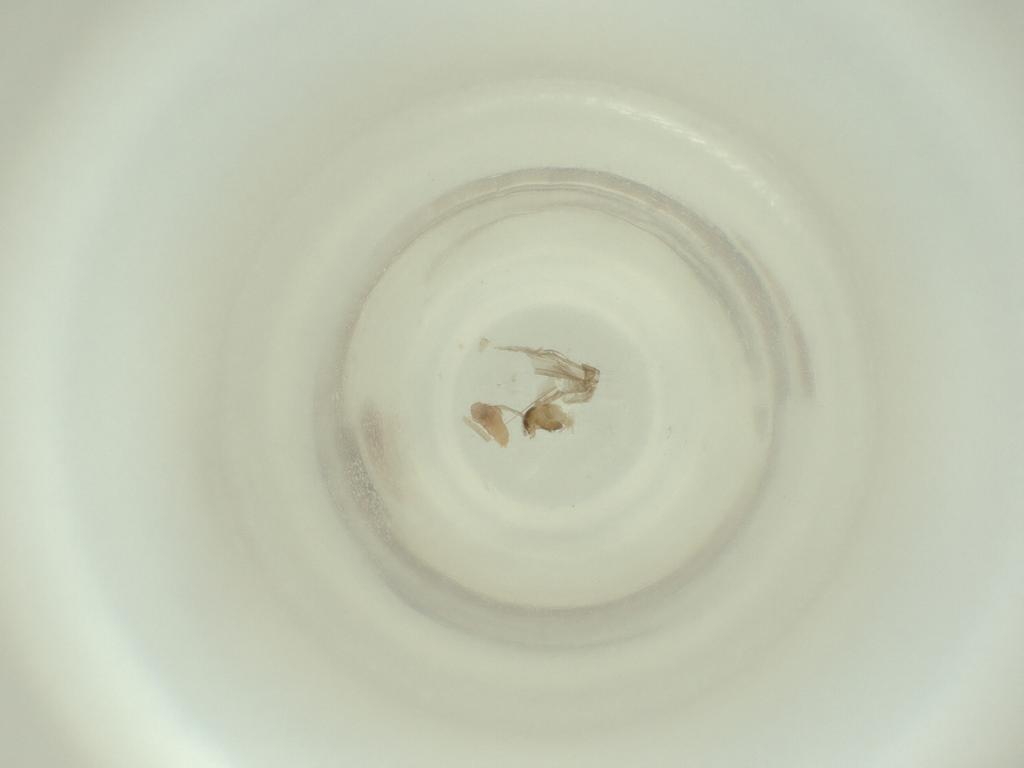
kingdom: Animalia
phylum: Arthropoda
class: Insecta
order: Diptera
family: Cecidomyiidae
